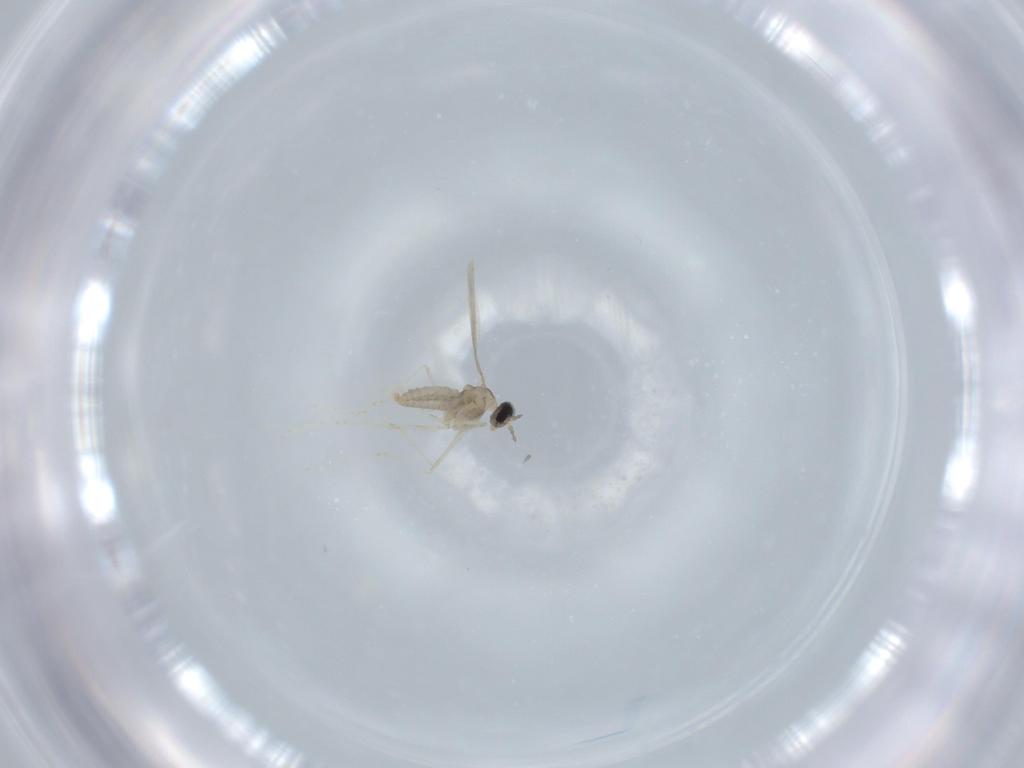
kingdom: Animalia
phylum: Arthropoda
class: Insecta
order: Diptera
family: Cecidomyiidae
